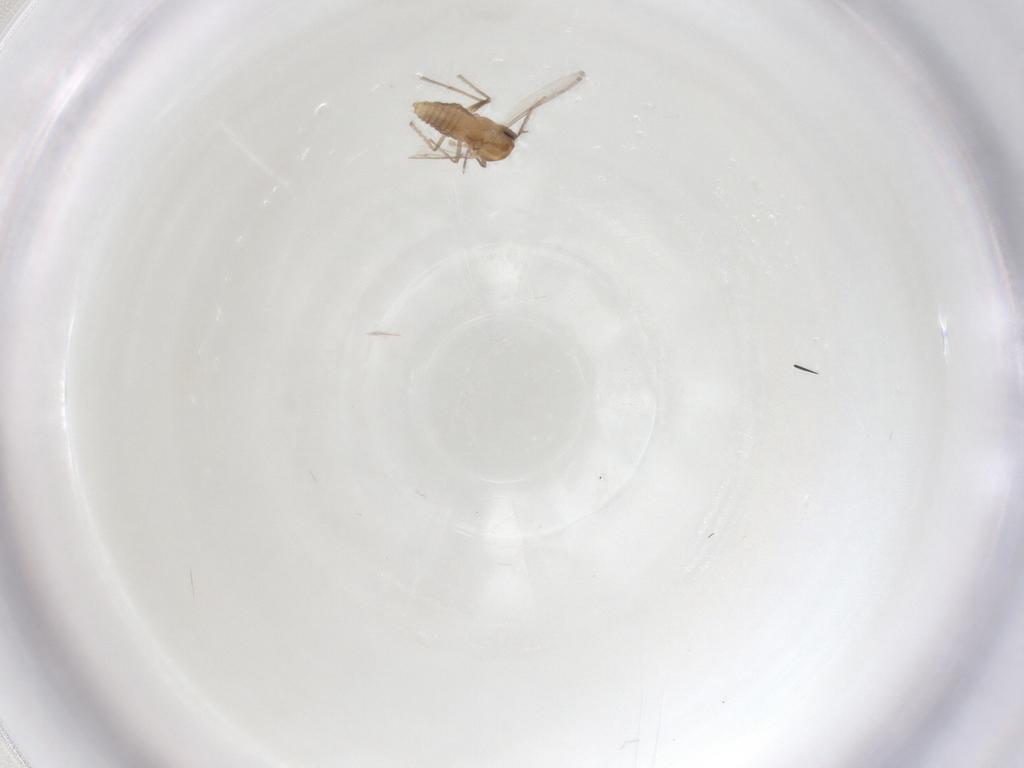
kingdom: Animalia
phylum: Arthropoda
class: Insecta
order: Diptera
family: Chironomidae
